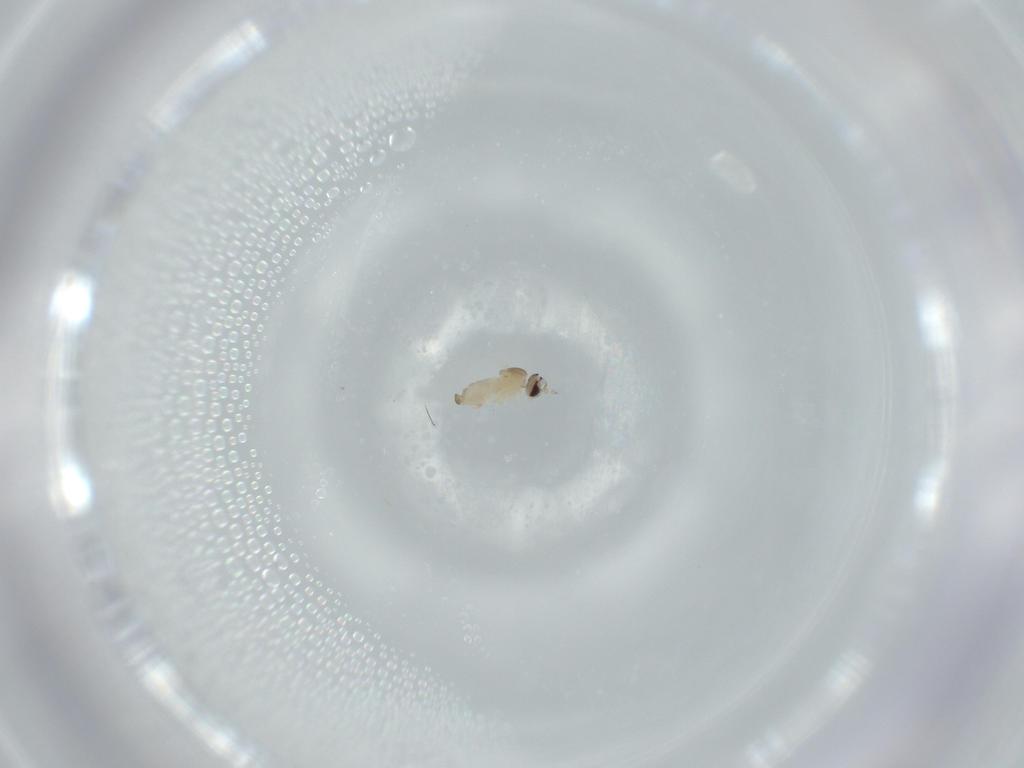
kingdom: Animalia
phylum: Arthropoda
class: Insecta
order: Diptera
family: Cecidomyiidae
